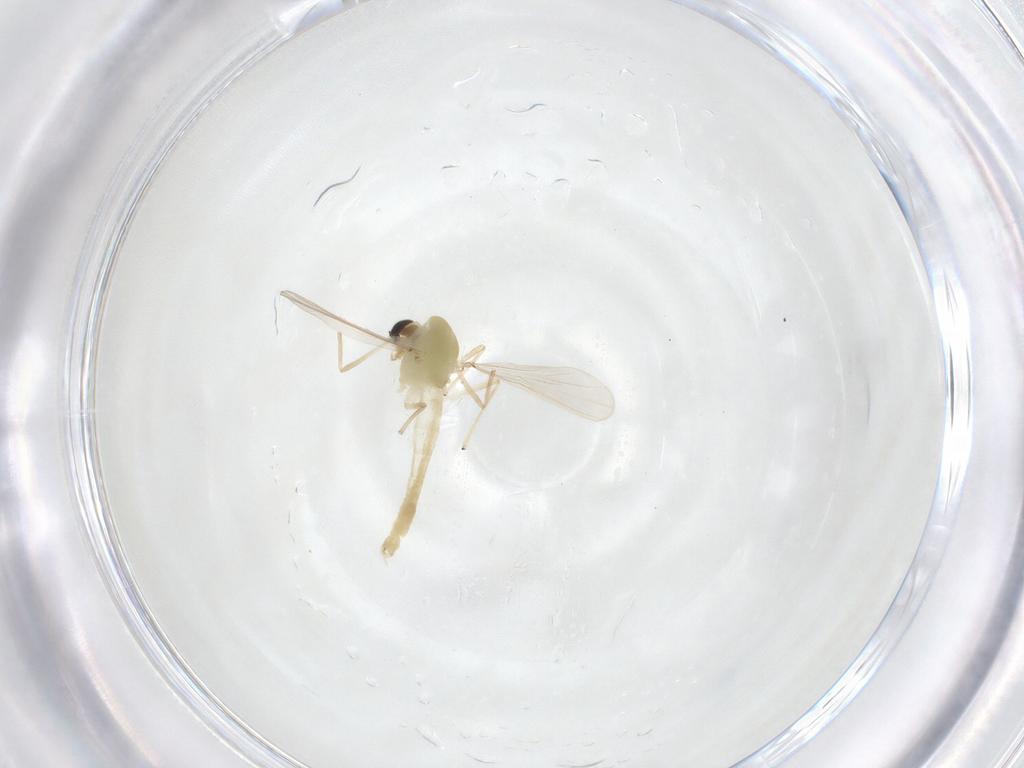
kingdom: Animalia
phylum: Arthropoda
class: Insecta
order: Diptera
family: Chironomidae
